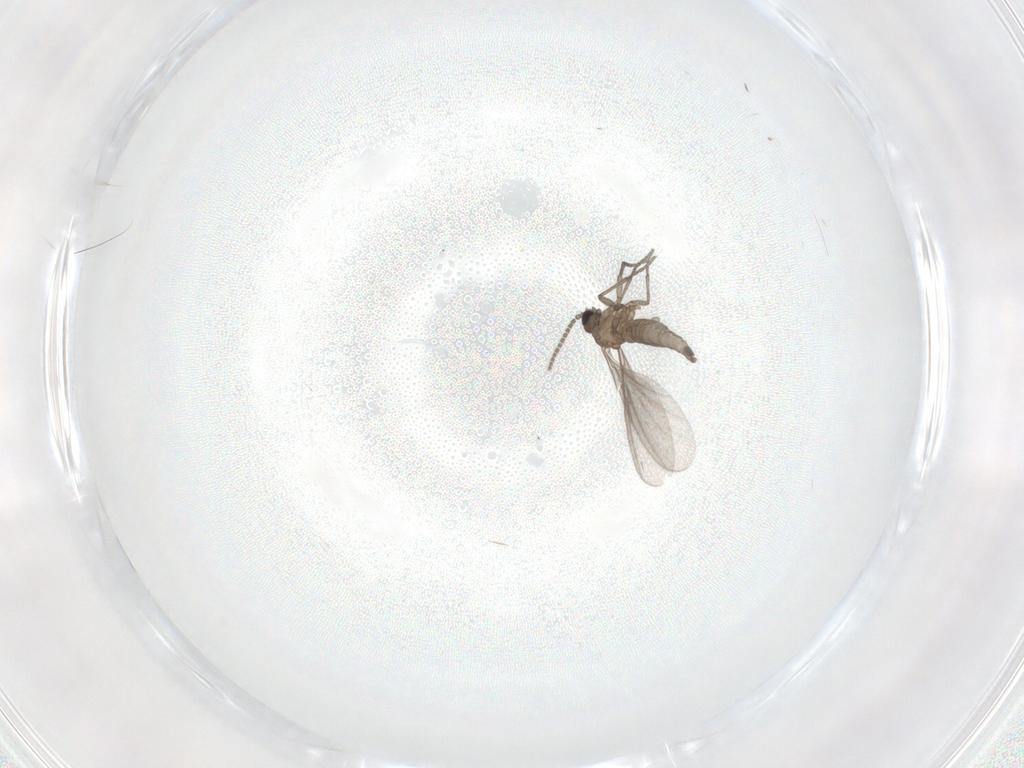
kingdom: Animalia
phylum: Arthropoda
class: Insecta
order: Diptera
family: Sciaridae
